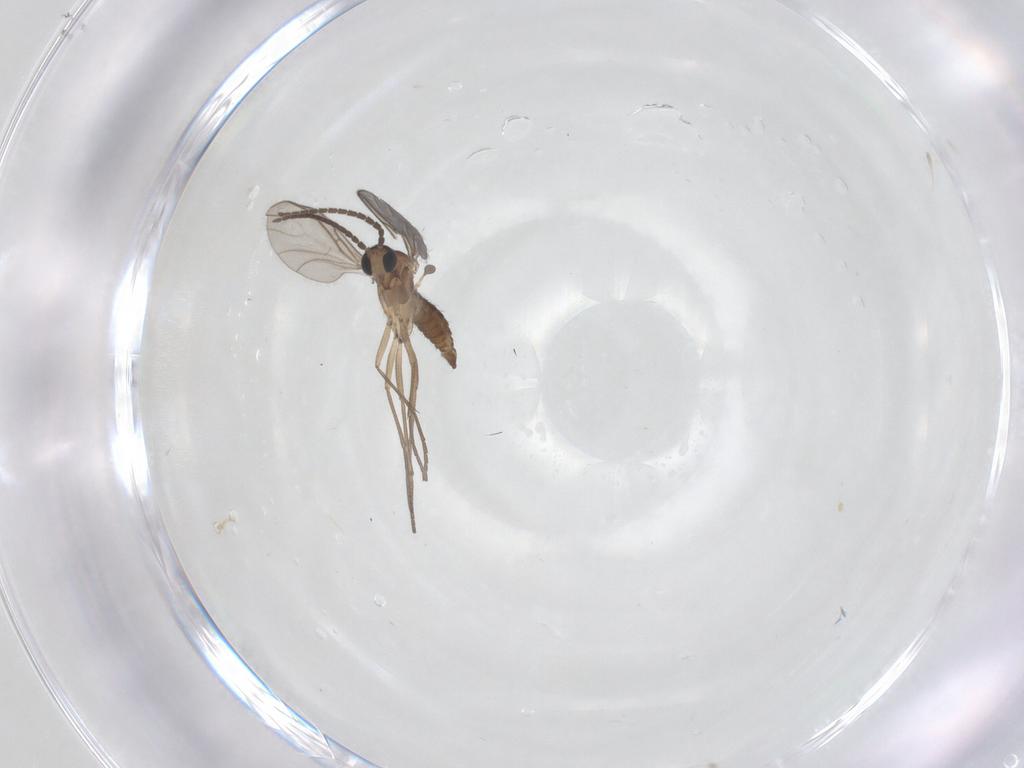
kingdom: Animalia
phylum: Arthropoda
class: Insecta
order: Diptera
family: Sciaridae
